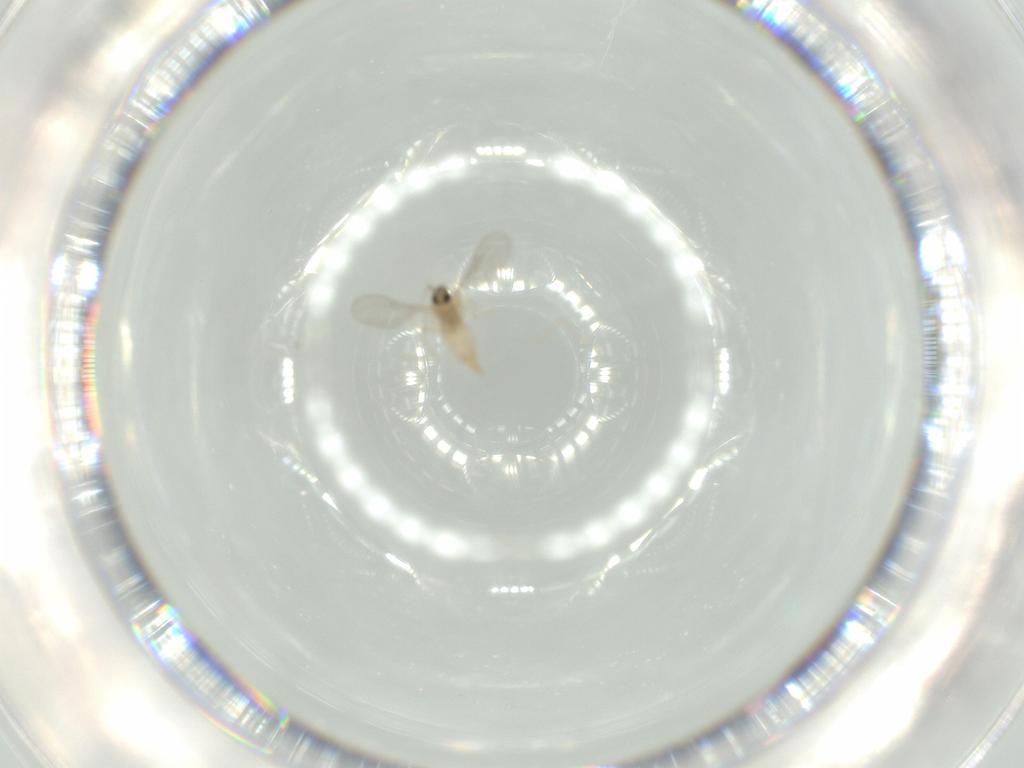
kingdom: Animalia
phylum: Arthropoda
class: Insecta
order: Diptera
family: Cecidomyiidae
